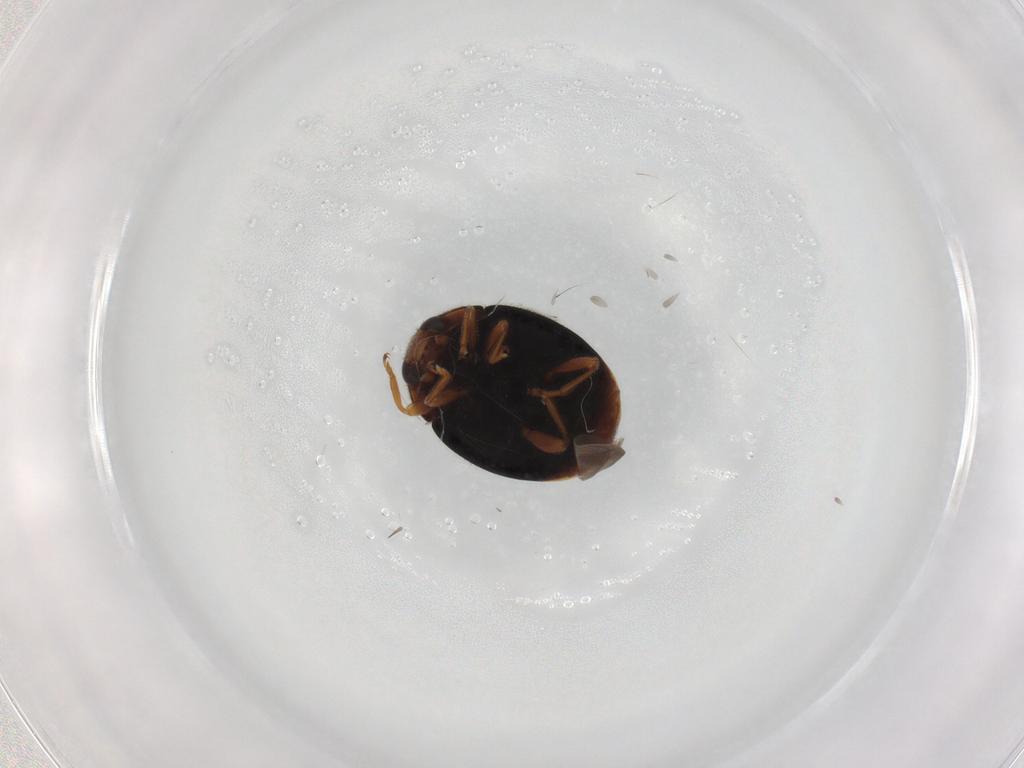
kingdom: Animalia
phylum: Arthropoda
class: Insecta
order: Coleoptera
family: Coccinellidae
